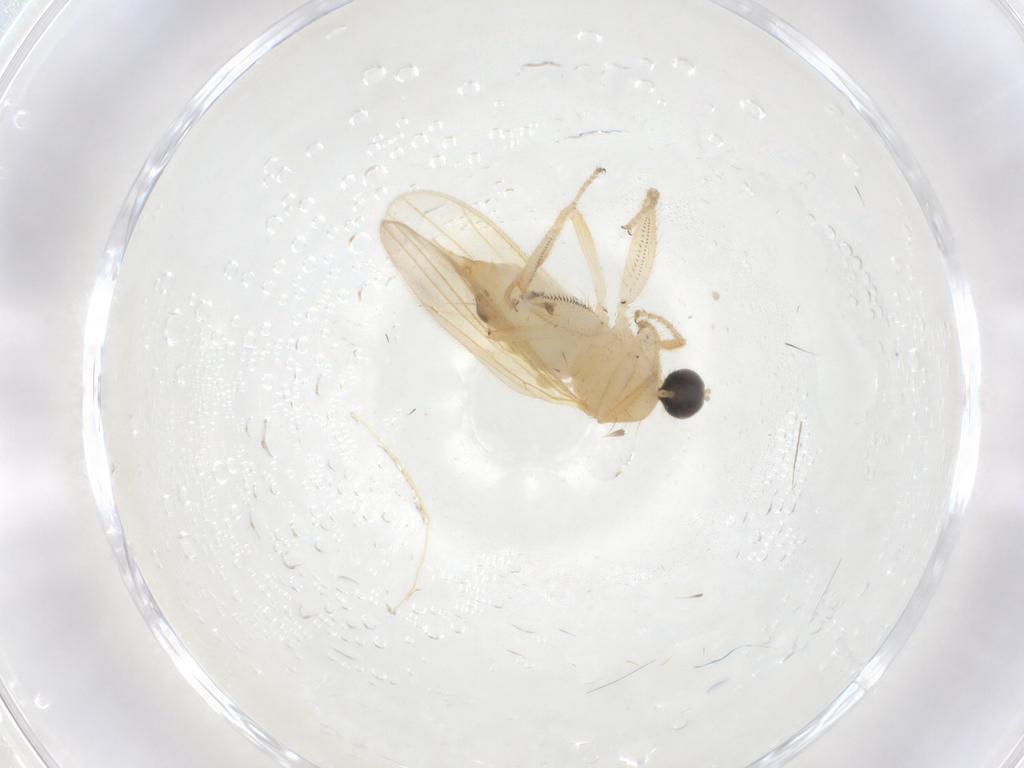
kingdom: Animalia
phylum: Arthropoda
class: Insecta
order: Diptera
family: Hybotidae
